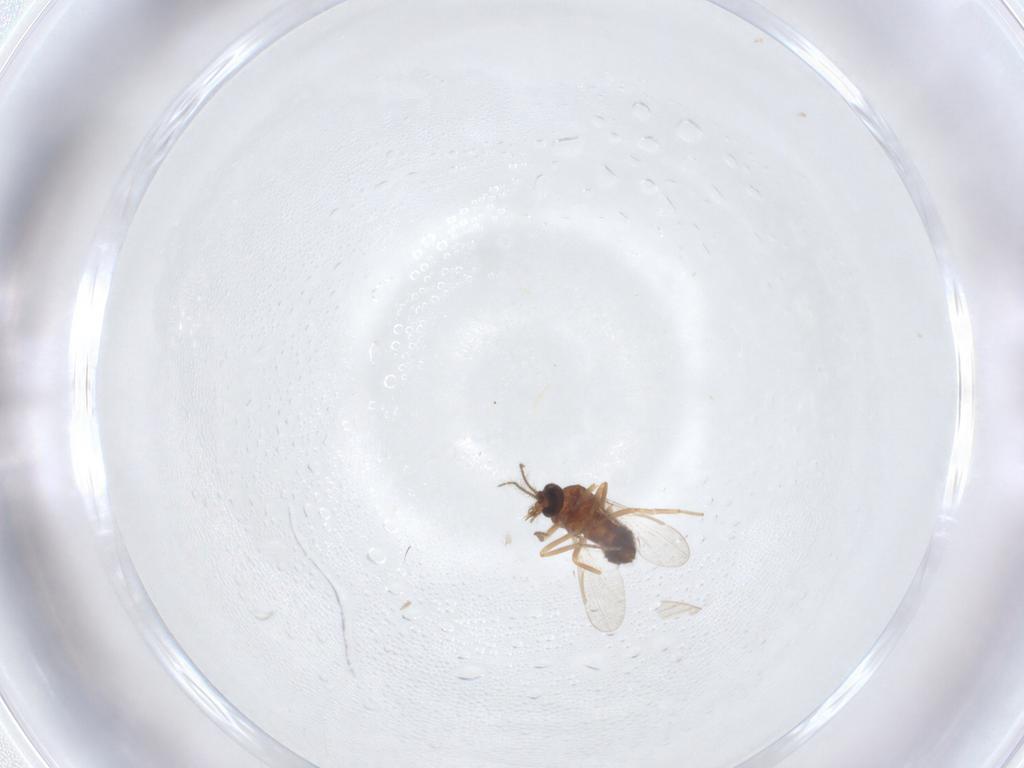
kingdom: Animalia
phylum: Arthropoda
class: Insecta
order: Diptera
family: Ceratopogonidae
